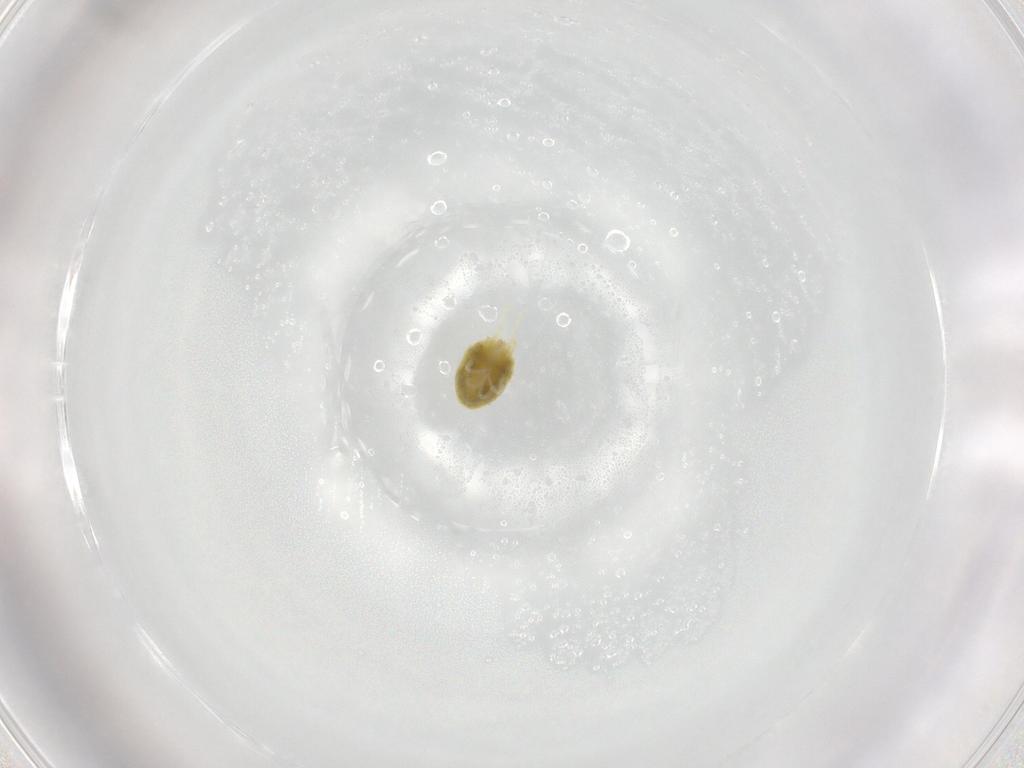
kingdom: Animalia
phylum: Arthropoda
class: Arachnida
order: Trombidiformes
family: Tetranychidae
